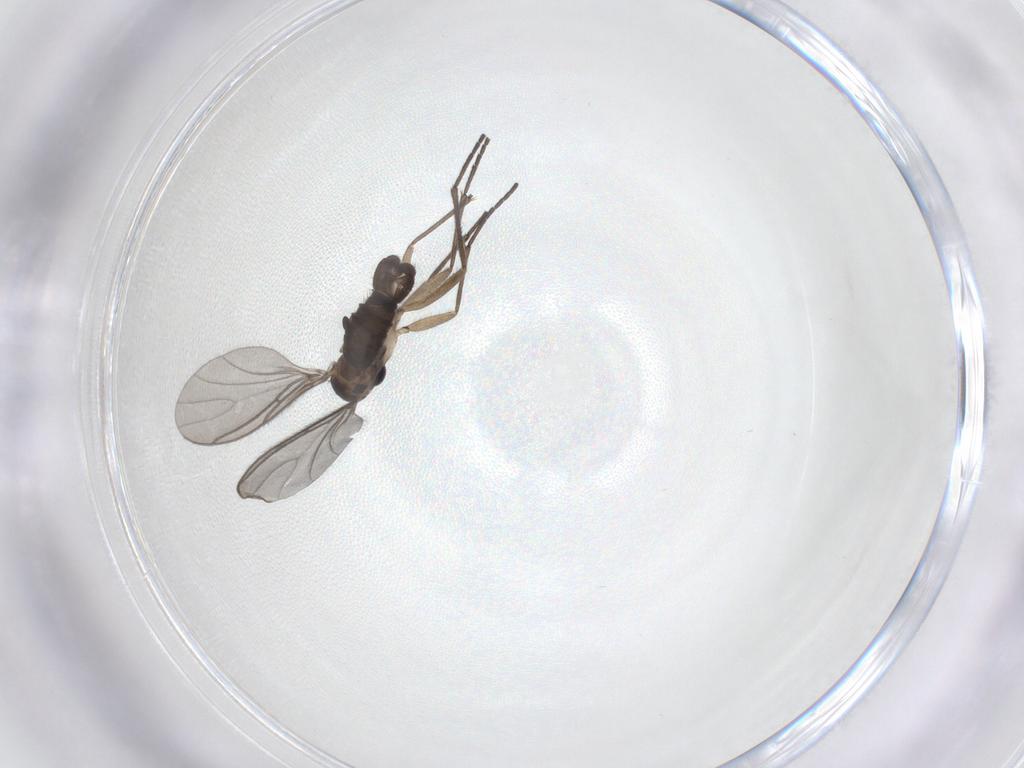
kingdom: Animalia
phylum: Arthropoda
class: Insecta
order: Diptera
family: Sciaridae
